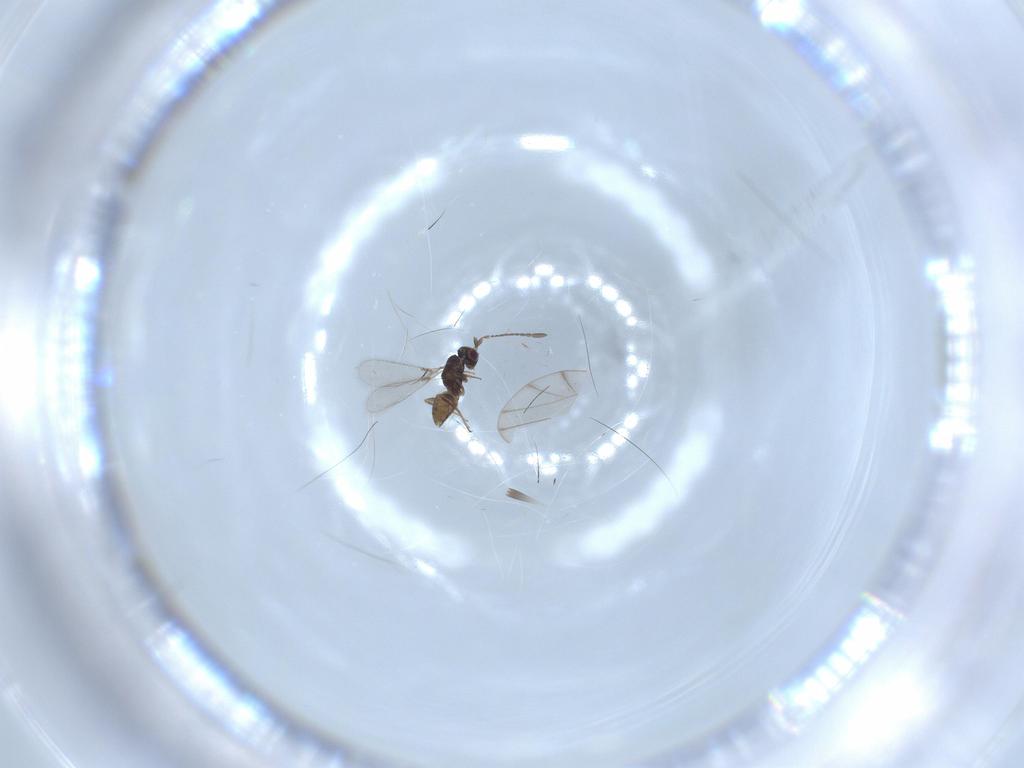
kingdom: Animalia
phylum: Arthropoda
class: Insecta
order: Hymenoptera
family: Mymaridae
